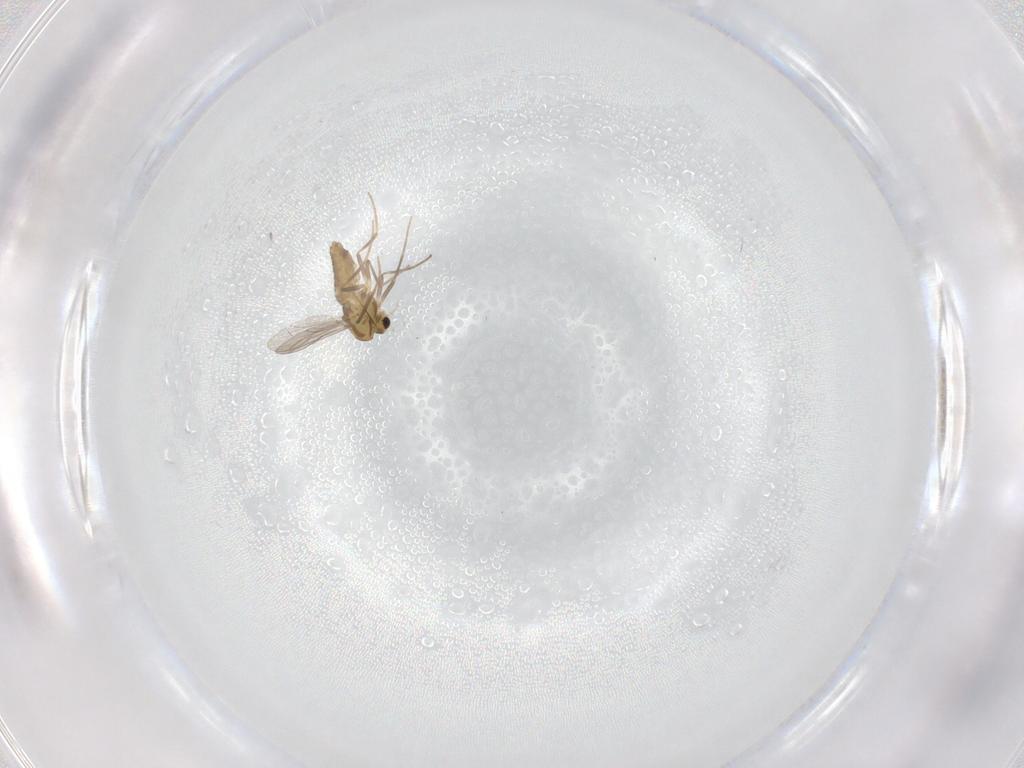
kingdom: Animalia
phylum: Arthropoda
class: Insecta
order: Diptera
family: Chironomidae
